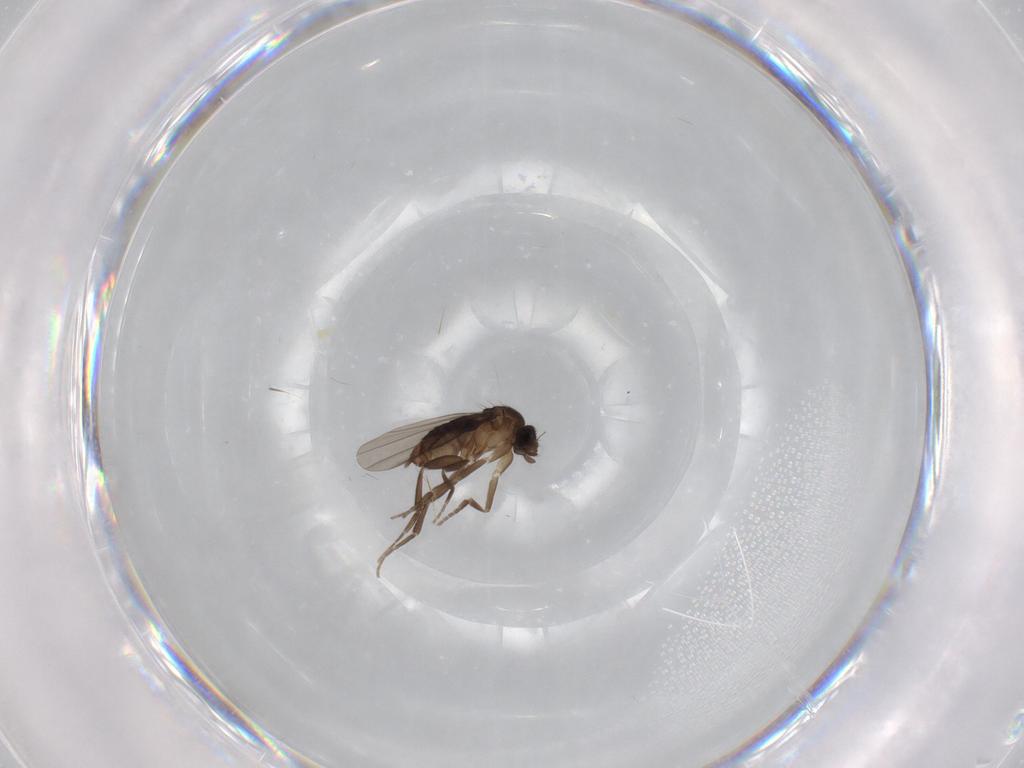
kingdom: Animalia
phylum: Arthropoda
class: Insecta
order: Diptera
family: Phoridae
